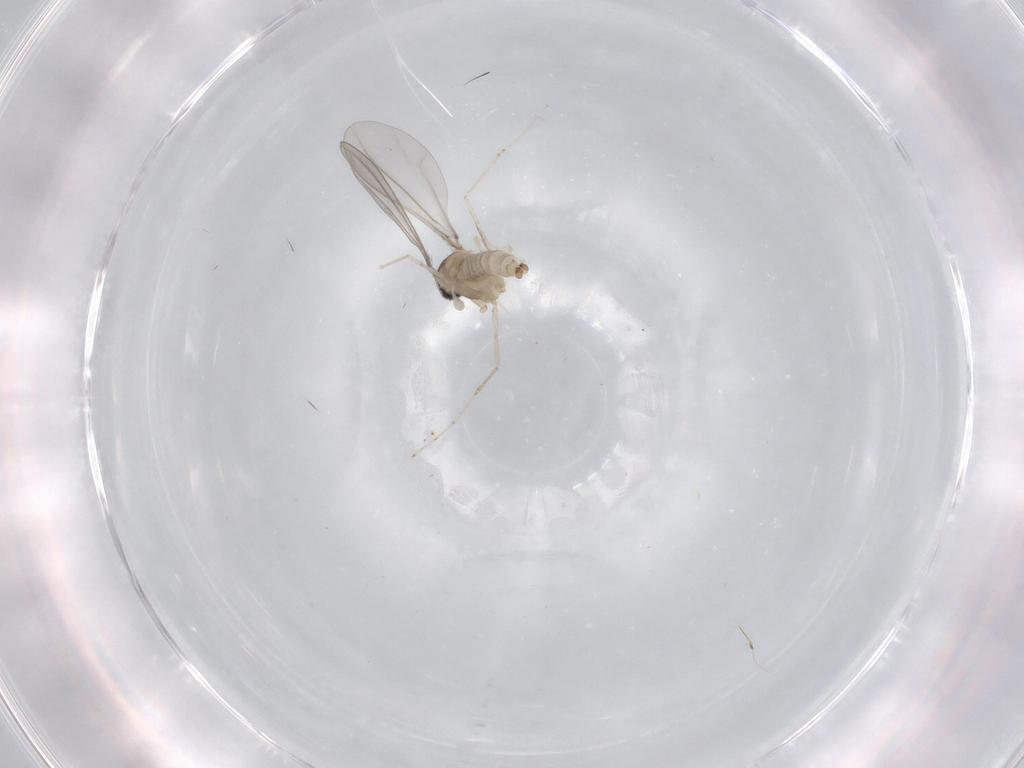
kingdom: Animalia
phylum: Arthropoda
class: Insecta
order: Diptera
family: Cecidomyiidae
